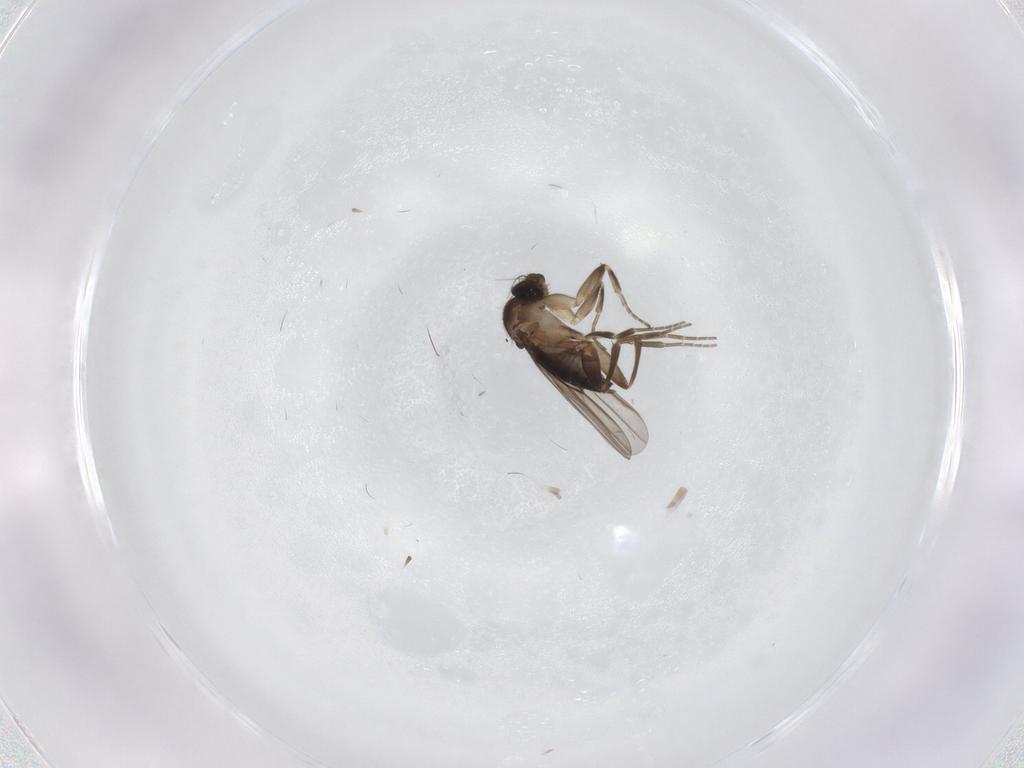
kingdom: Animalia
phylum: Arthropoda
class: Insecta
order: Diptera
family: Phoridae
